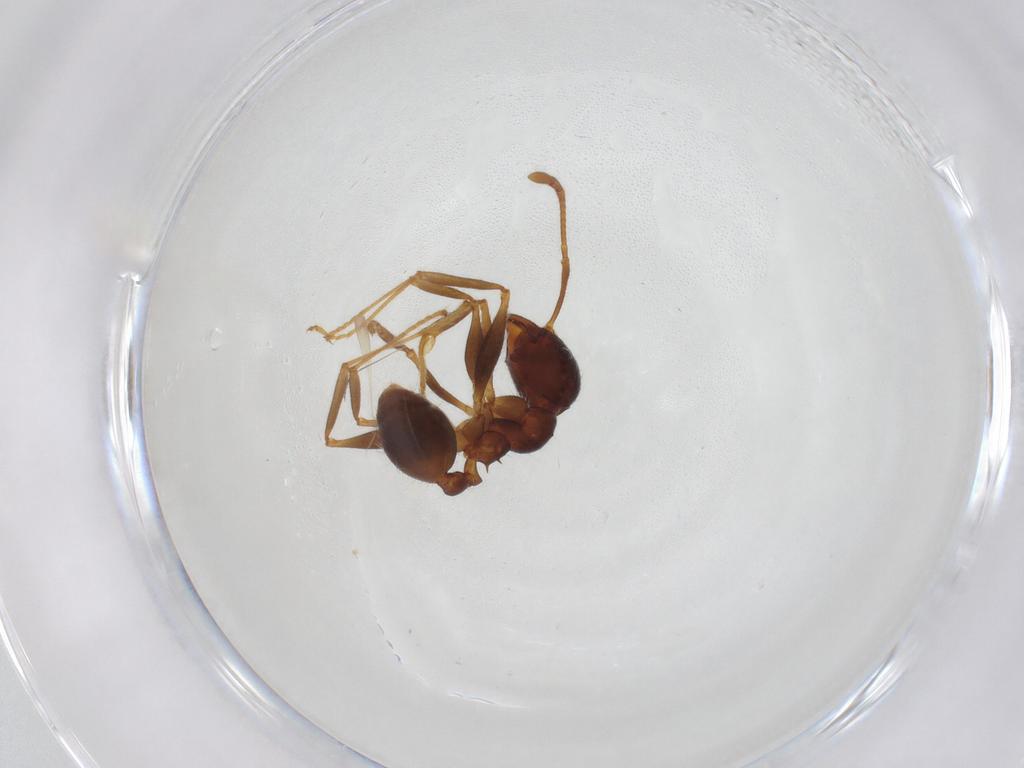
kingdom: Animalia
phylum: Arthropoda
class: Insecta
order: Hymenoptera
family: Formicidae
